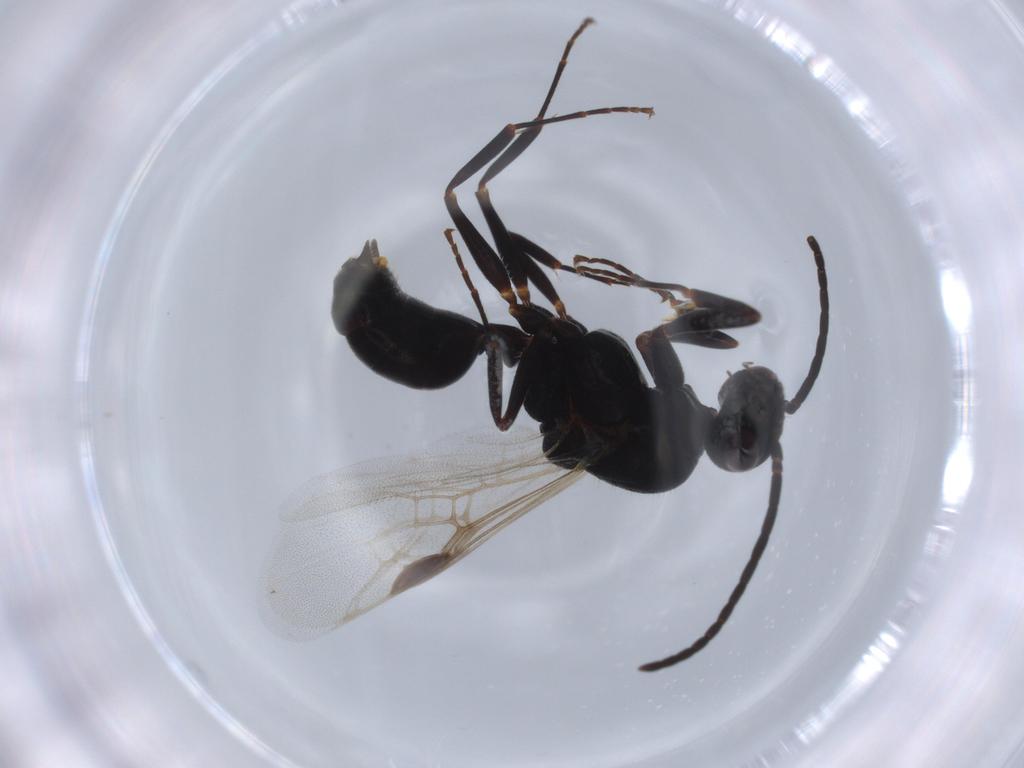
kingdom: Animalia
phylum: Arthropoda
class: Insecta
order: Hymenoptera
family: Formicidae
